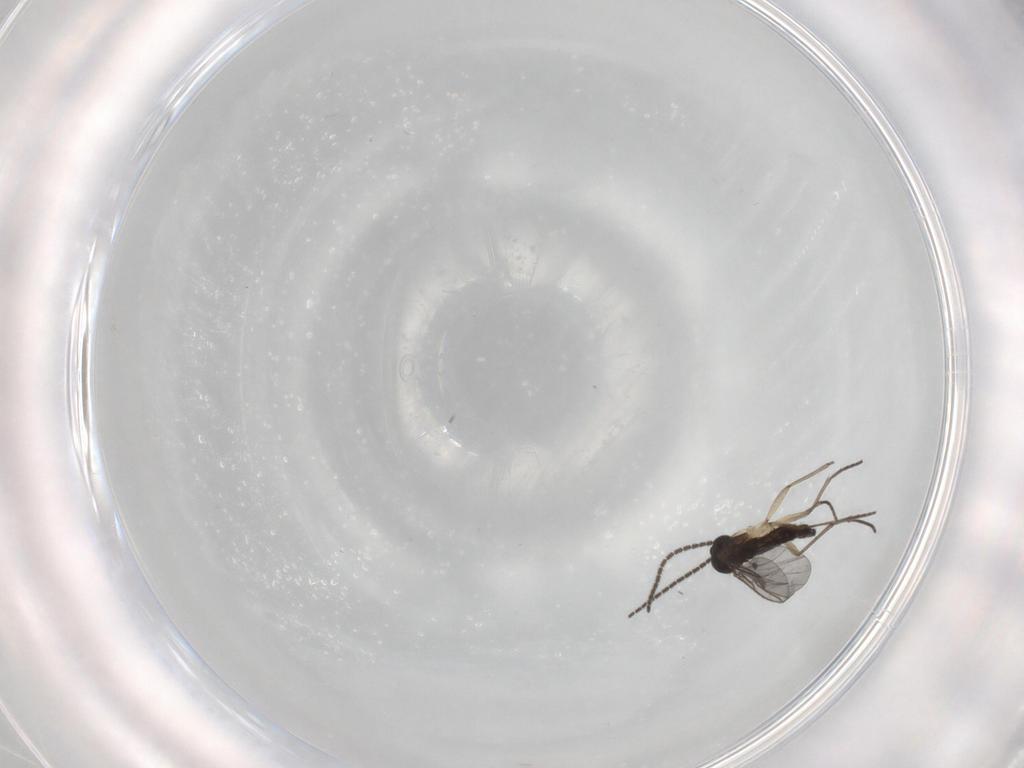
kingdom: Animalia
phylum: Arthropoda
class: Insecta
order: Diptera
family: Sciaridae
